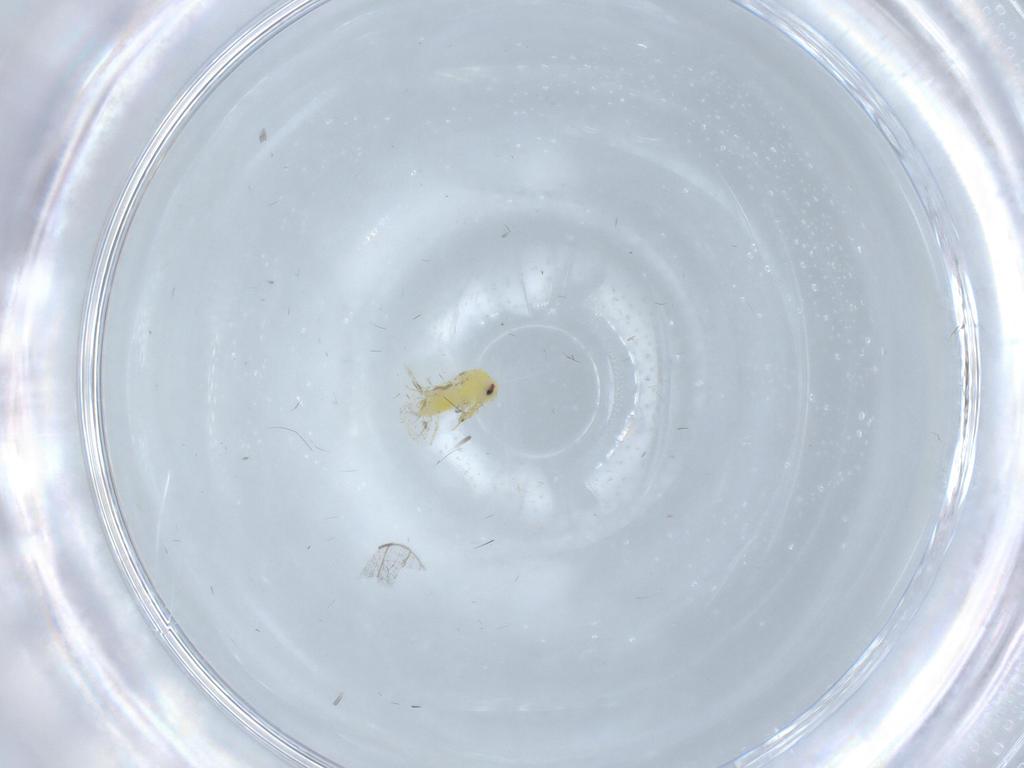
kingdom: Animalia
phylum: Arthropoda
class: Insecta
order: Hemiptera
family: Aleyrodidae
